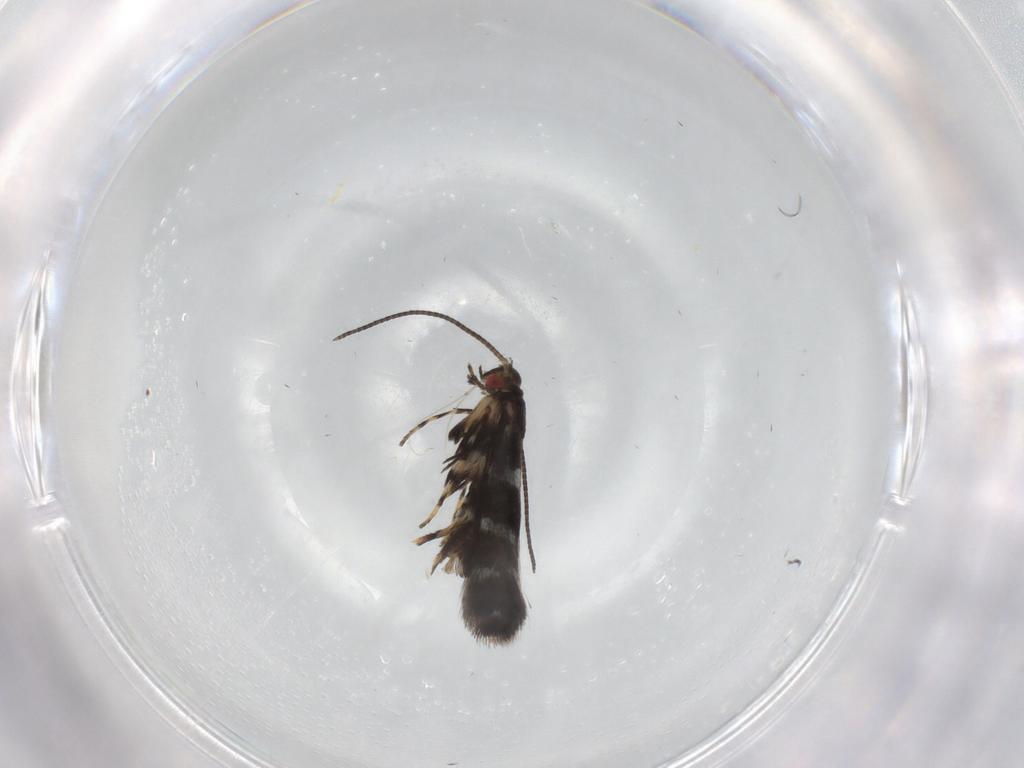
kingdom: Animalia
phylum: Arthropoda
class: Insecta
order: Lepidoptera
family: Gracillariidae
